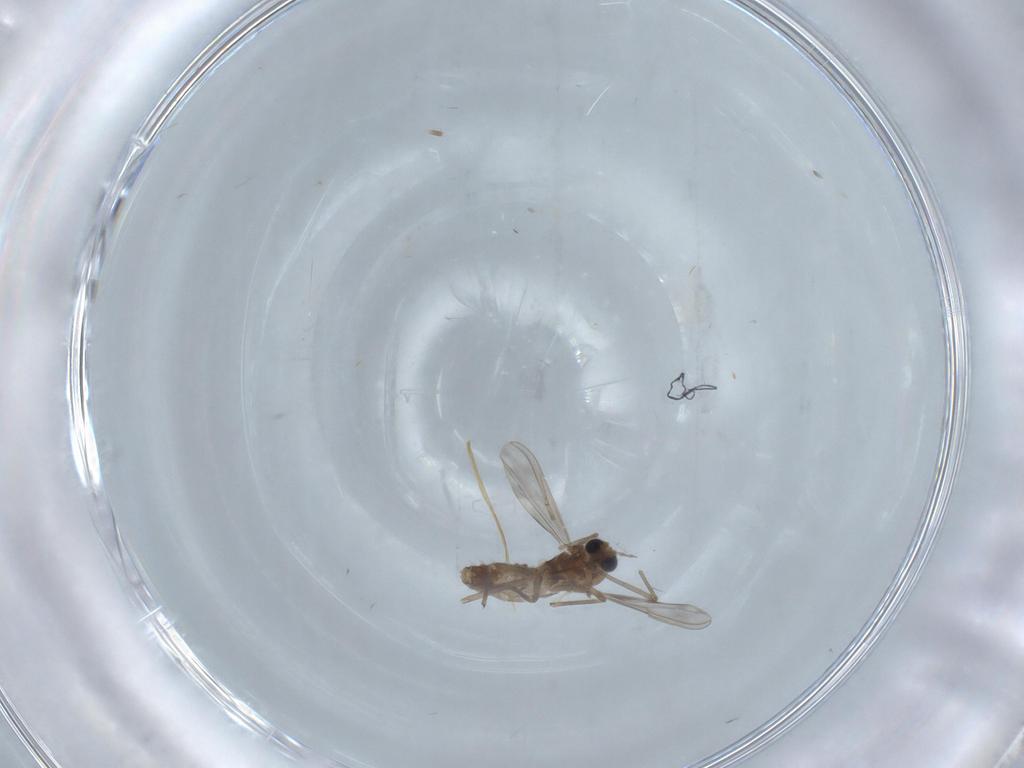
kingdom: Animalia
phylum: Arthropoda
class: Insecta
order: Diptera
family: Chironomidae
